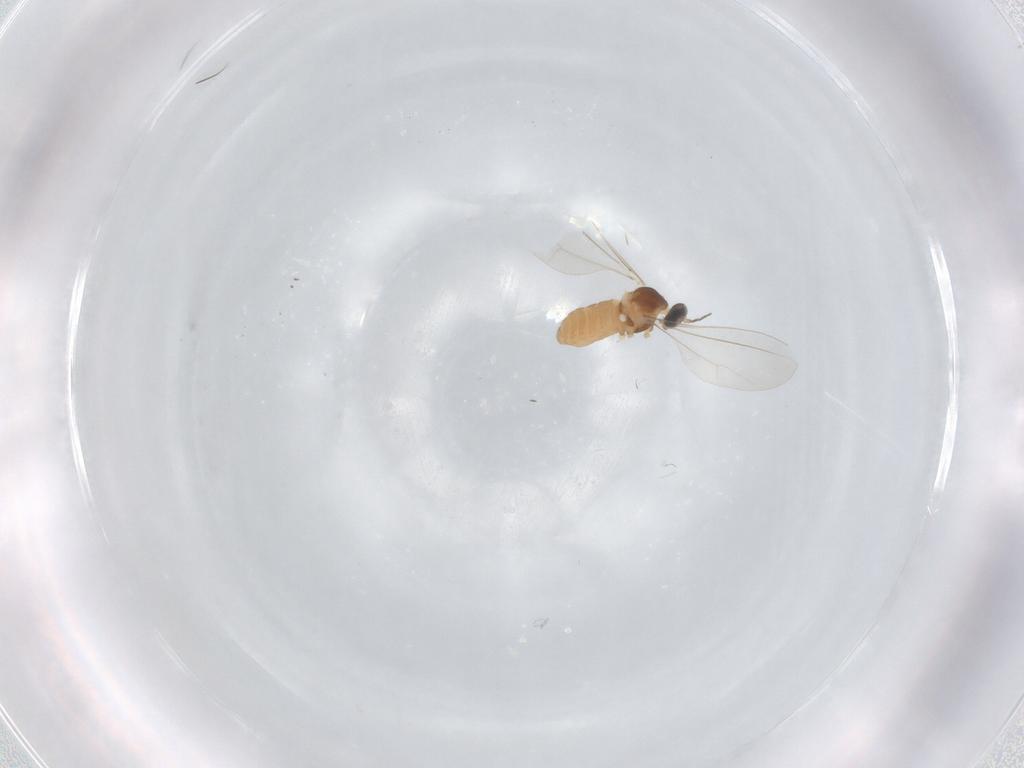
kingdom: Animalia
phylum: Arthropoda
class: Insecta
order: Diptera
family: Cecidomyiidae
